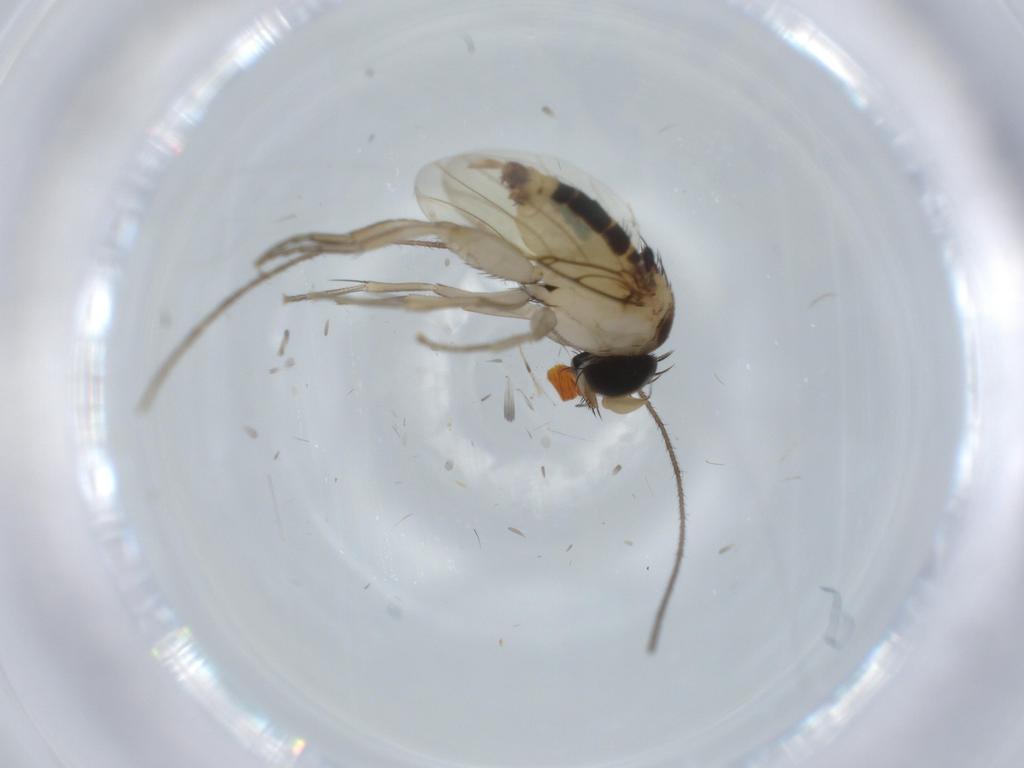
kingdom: Animalia
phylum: Arthropoda
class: Insecta
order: Diptera
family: Phoridae
